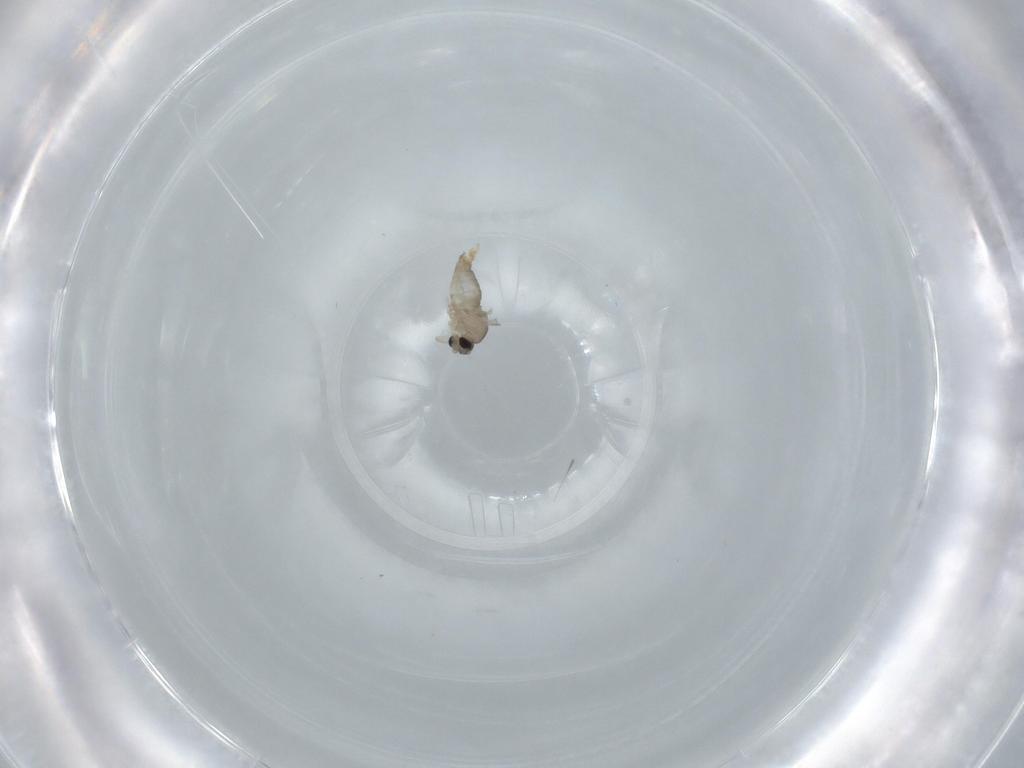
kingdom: Animalia
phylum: Arthropoda
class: Insecta
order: Diptera
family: Cecidomyiidae
